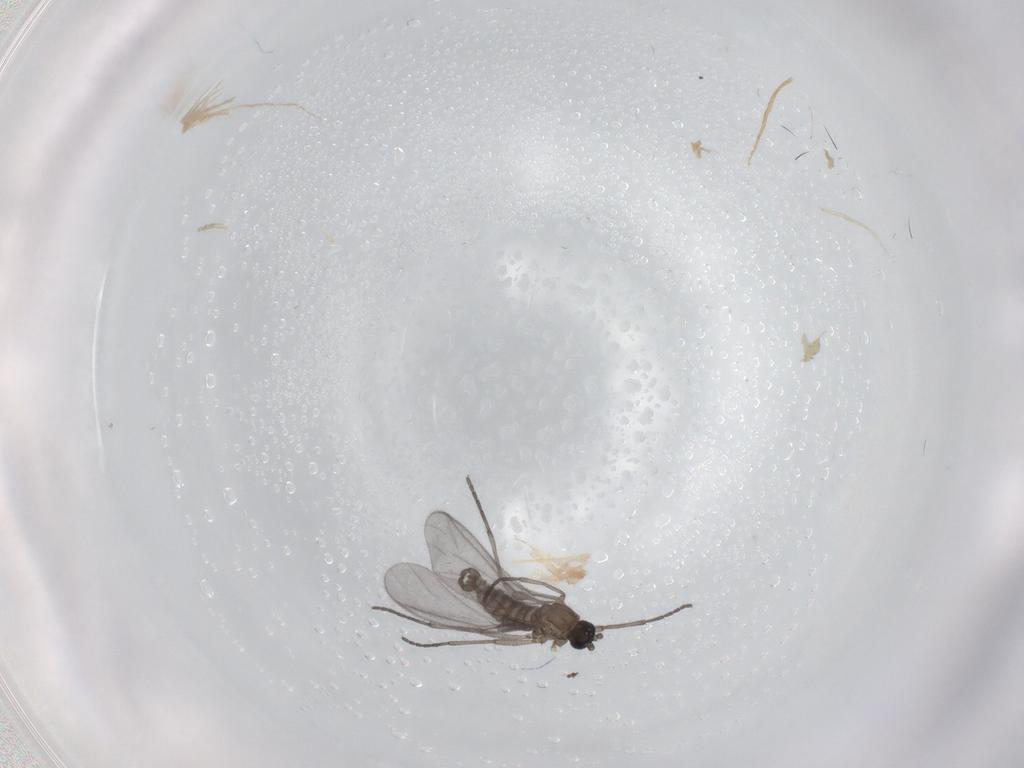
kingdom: Animalia
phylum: Arthropoda
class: Insecta
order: Diptera
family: Sciaridae
